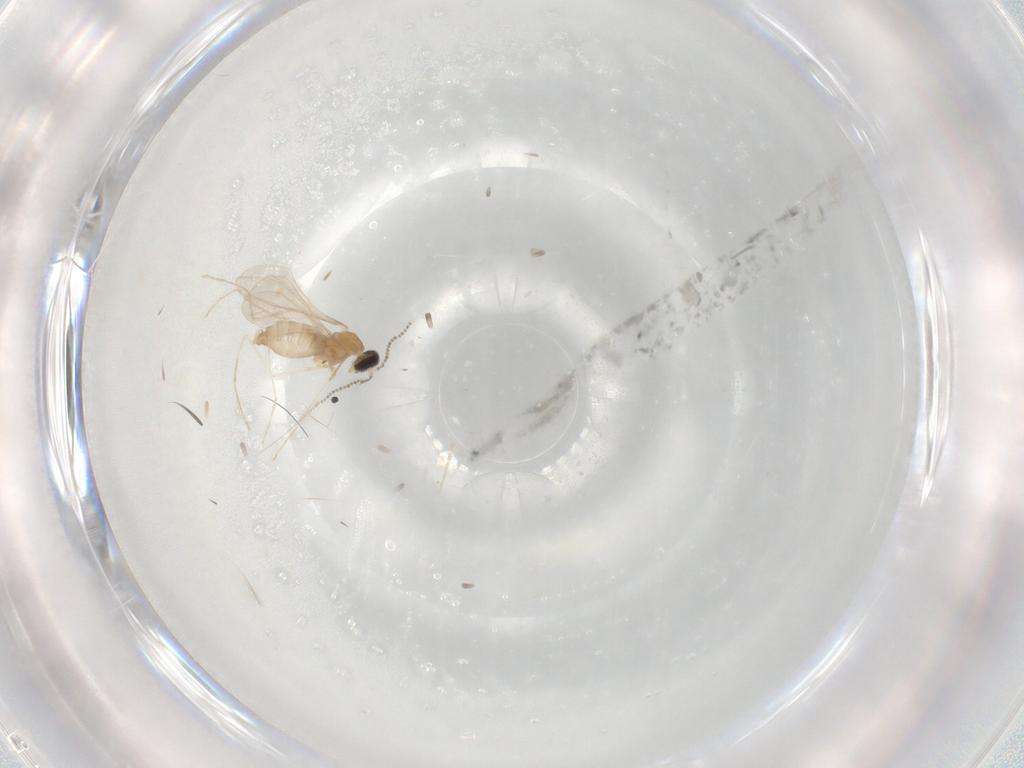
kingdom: Animalia
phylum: Arthropoda
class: Insecta
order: Diptera
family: Cecidomyiidae
